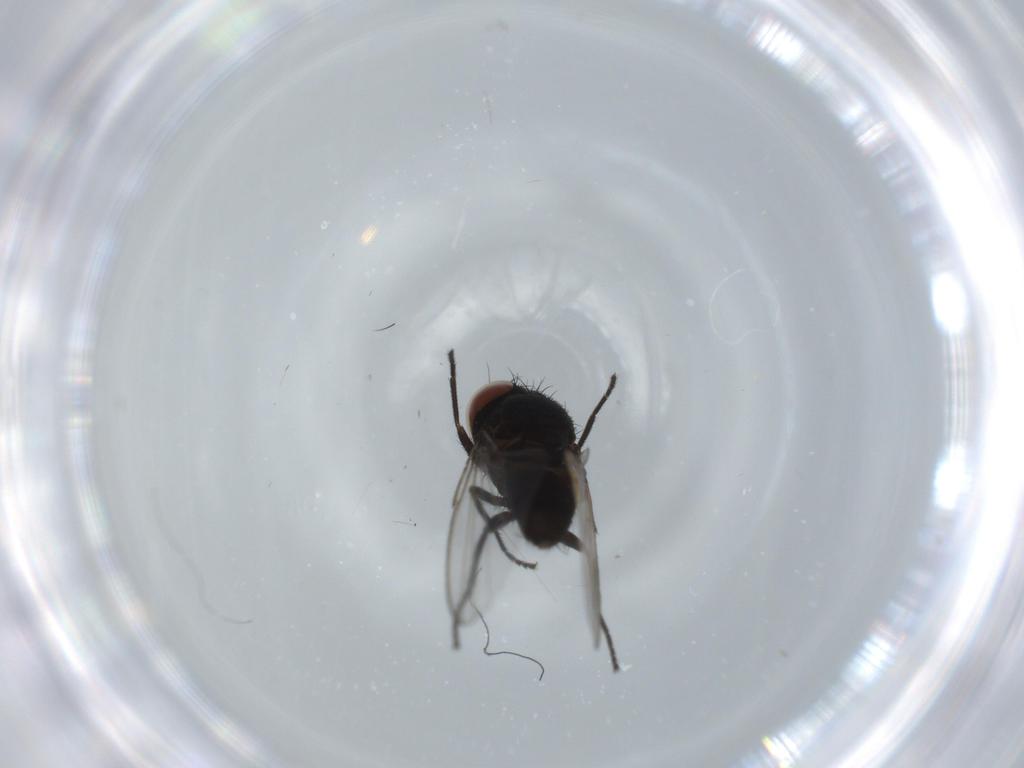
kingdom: Animalia
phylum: Arthropoda
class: Insecta
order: Diptera
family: Milichiidae
